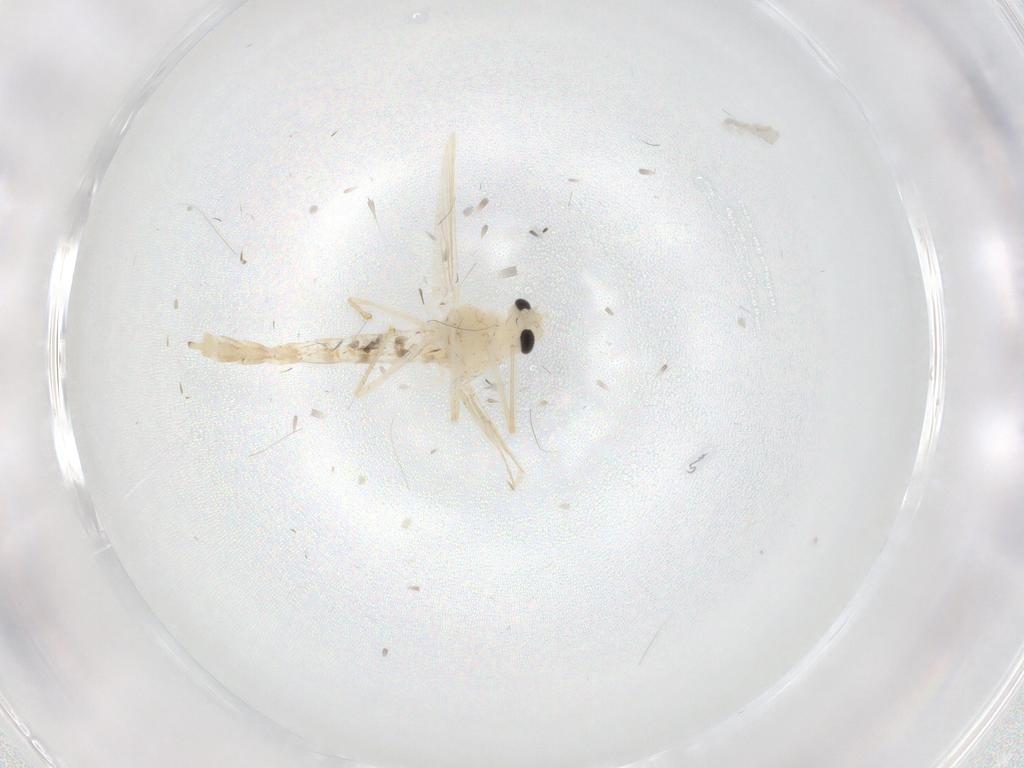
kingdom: Animalia
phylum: Arthropoda
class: Insecta
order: Diptera
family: Chironomidae
